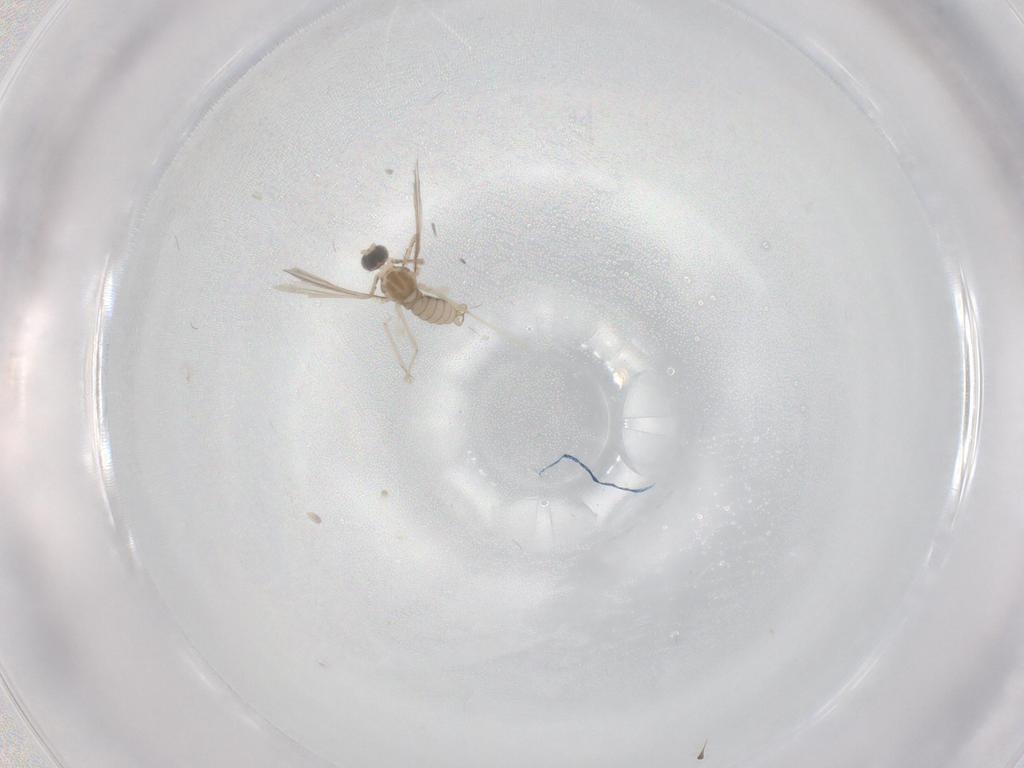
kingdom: Animalia
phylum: Arthropoda
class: Insecta
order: Diptera
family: Cecidomyiidae
